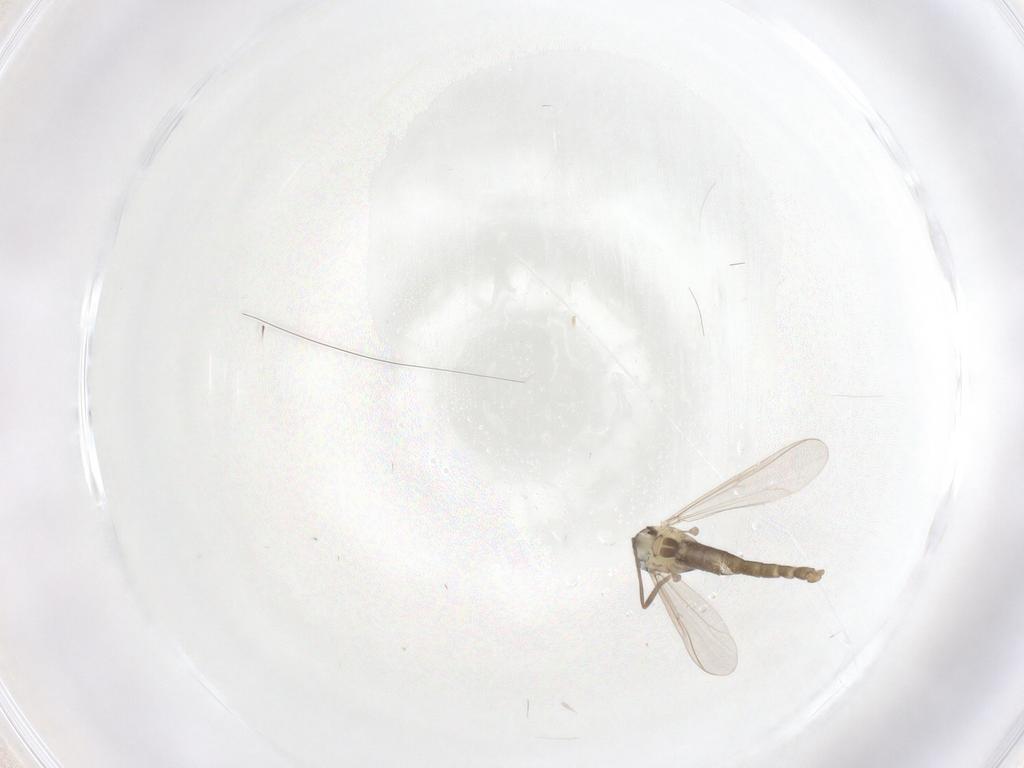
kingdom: Animalia
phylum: Arthropoda
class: Insecta
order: Diptera
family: Chironomidae
